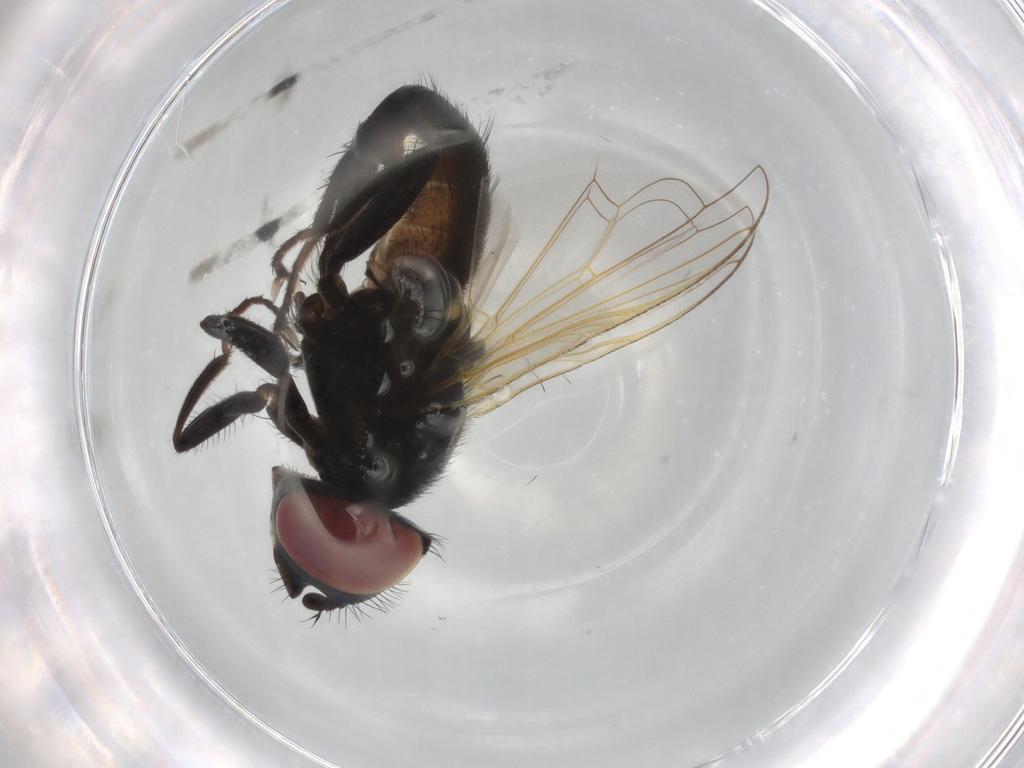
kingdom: Animalia
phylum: Arthropoda
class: Insecta
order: Diptera
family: Tachinidae
